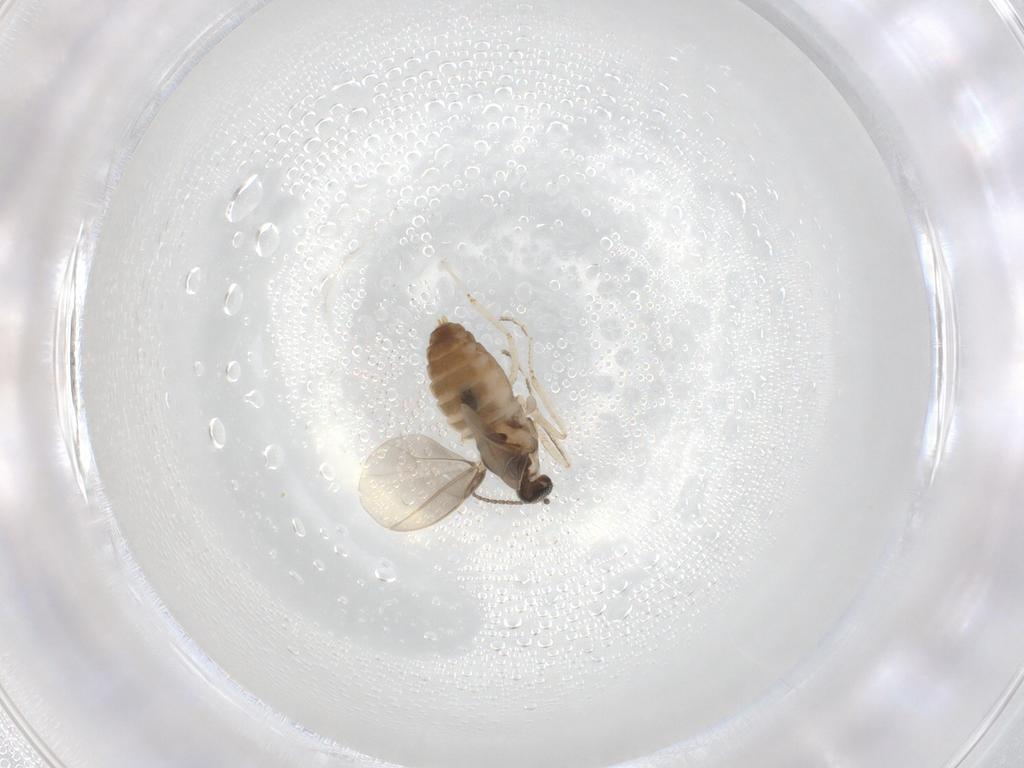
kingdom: Animalia
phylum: Arthropoda
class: Insecta
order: Diptera
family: Cecidomyiidae
